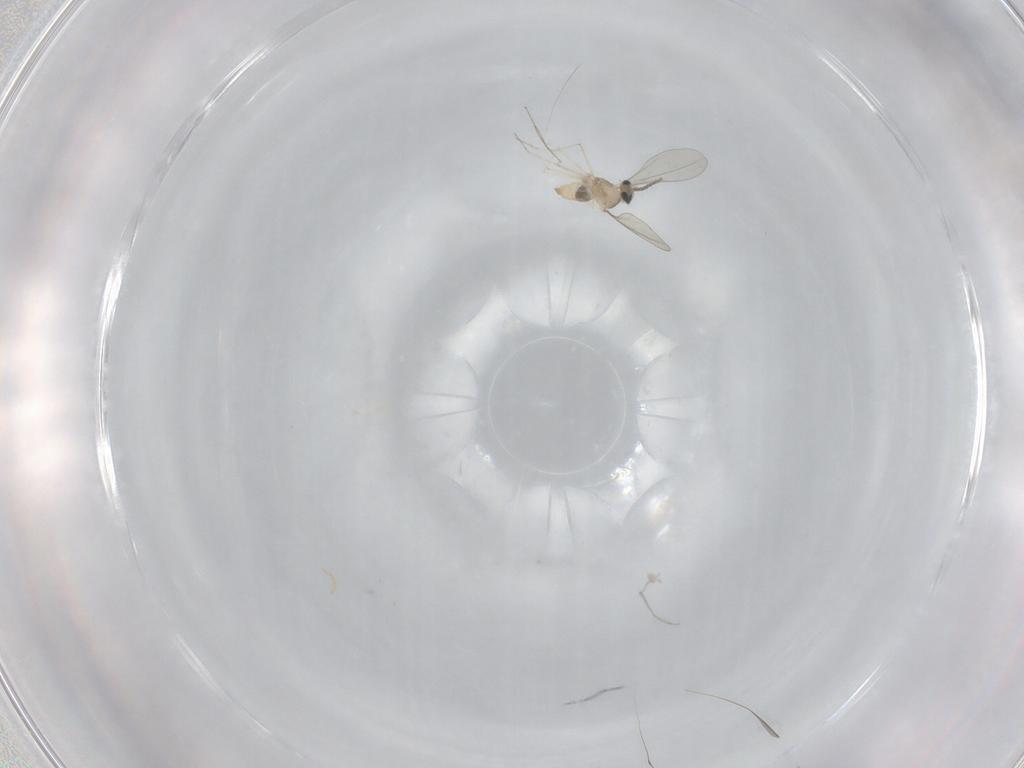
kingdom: Animalia
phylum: Arthropoda
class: Insecta
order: Diptera
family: Cecidomyiidae
